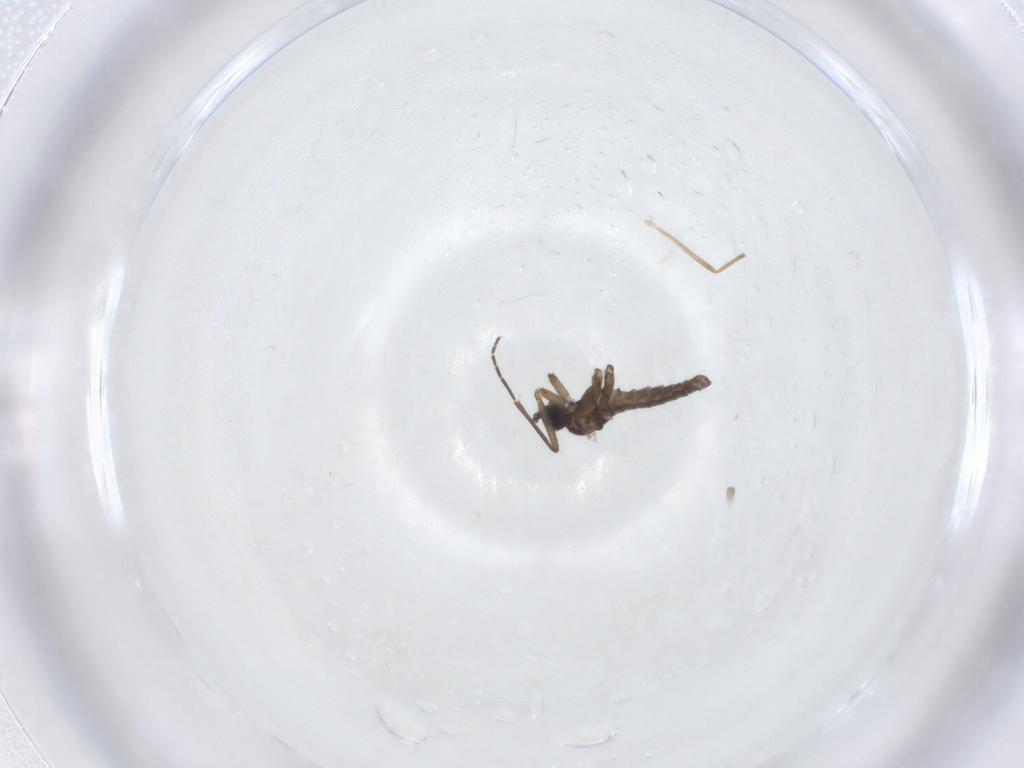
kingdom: Animalia
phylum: Arthropoda
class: Insecta
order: Diptera
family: Sciaridae
